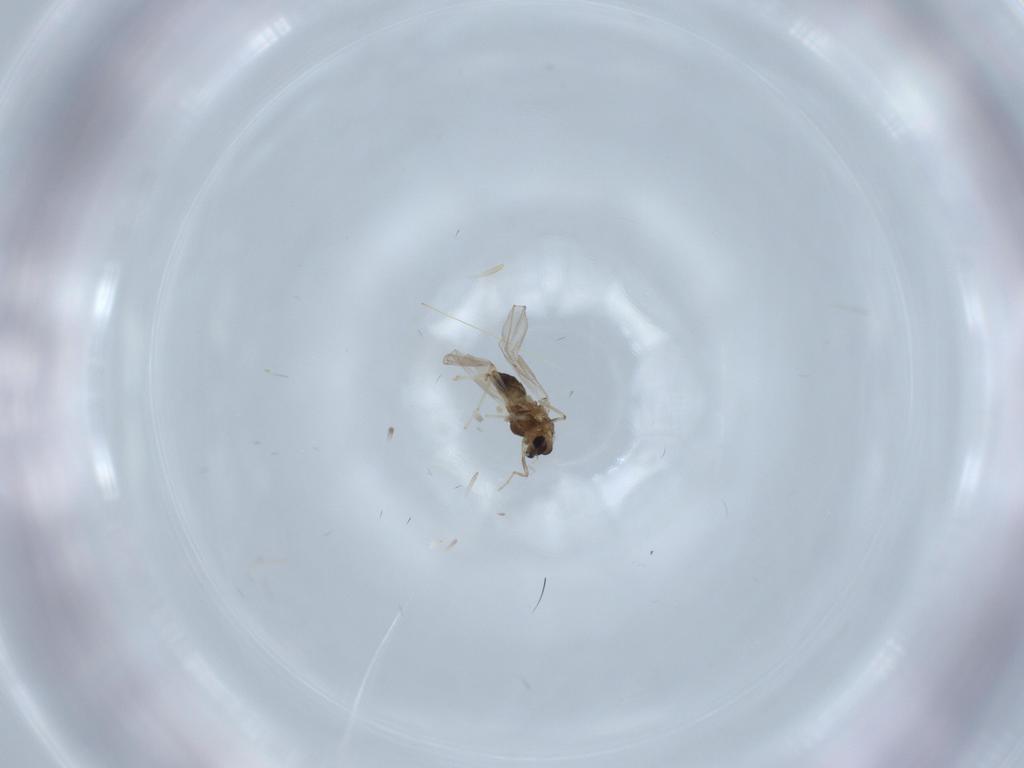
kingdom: Animalia
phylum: Arthropoda
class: Insecta
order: Diptera
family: Chironomidae
